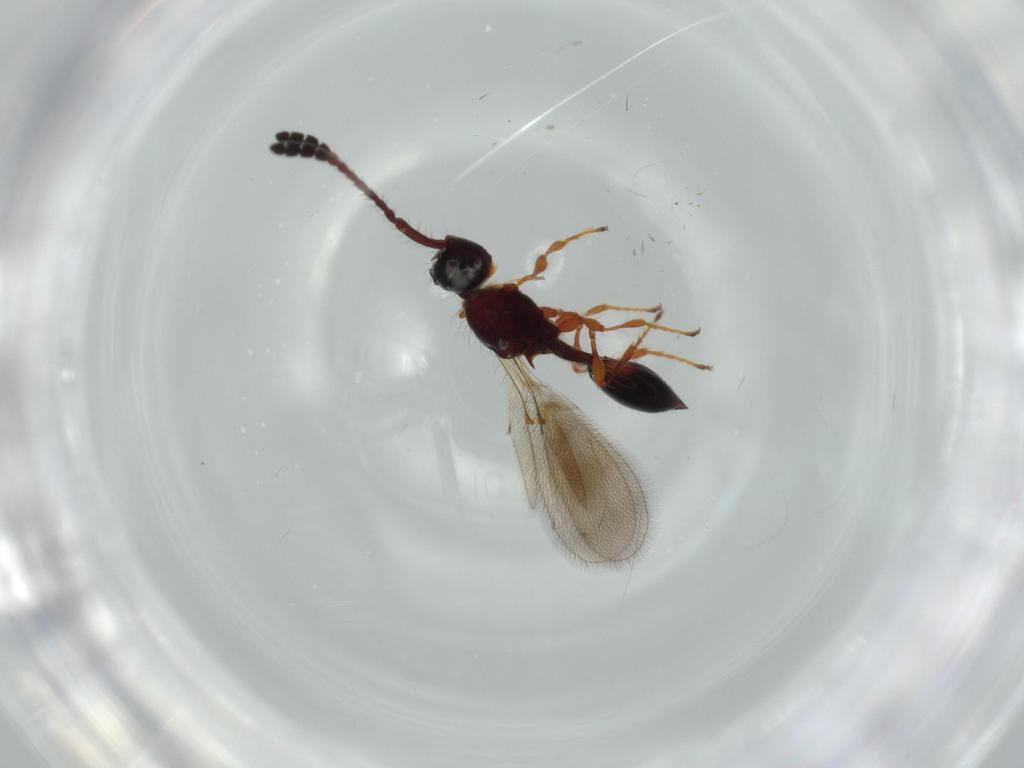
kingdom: Animalia
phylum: Arthropoda
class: Insecta
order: Hymenoptera
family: Diapriidae
